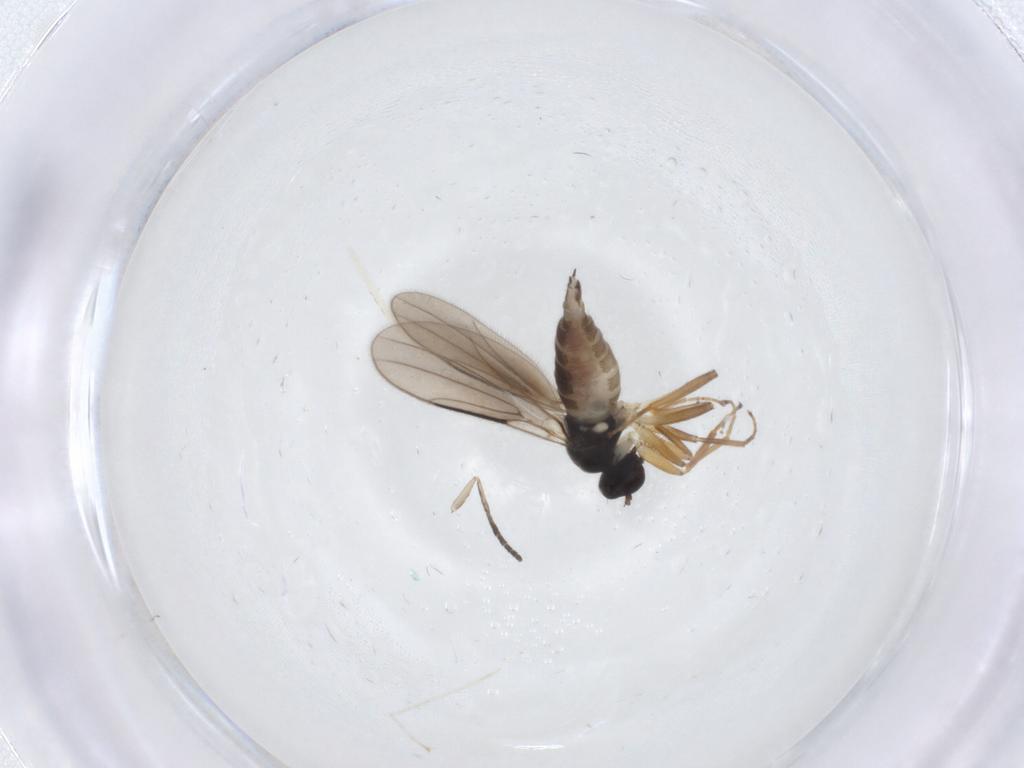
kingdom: Animalia
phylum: Arthropoda
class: Insecta
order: Diptera
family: Cecidomyiidae
